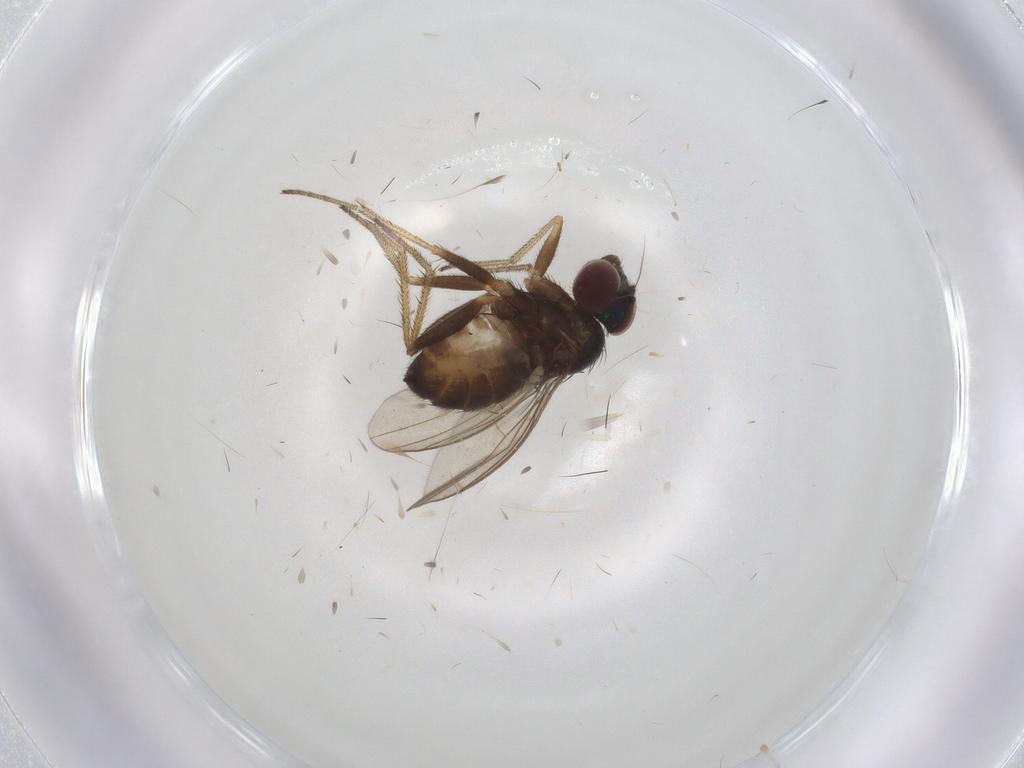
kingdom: Animalia
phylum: Arthropoda
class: Insecta
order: Diptera
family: Dolichopodidae
